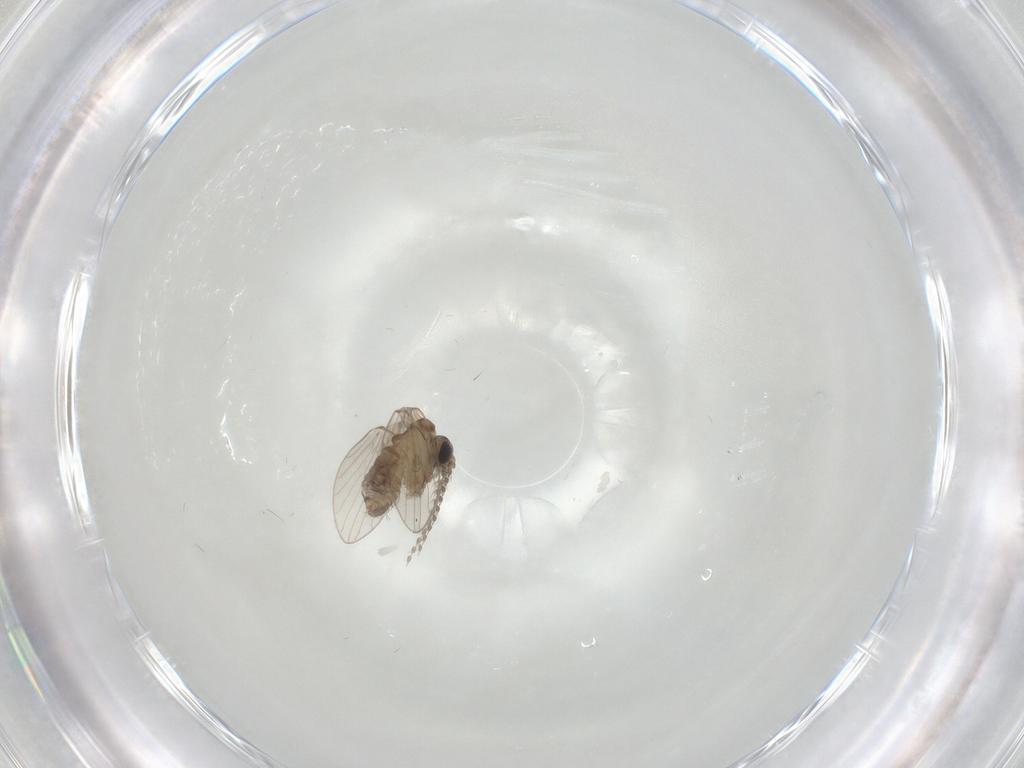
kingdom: Animalia
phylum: Arthropoda
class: Insecta
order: Diptera
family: Psychodidae
